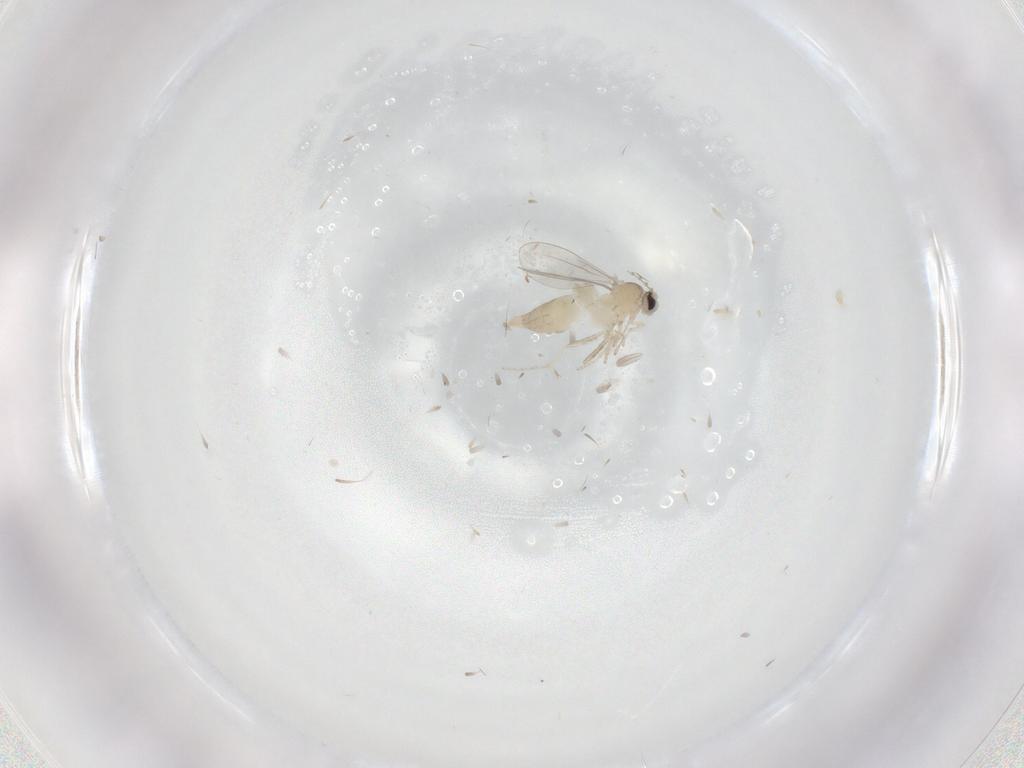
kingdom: Animalia
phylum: Arthropoda
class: Insecta
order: Diptera
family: Cecidomyiidae
